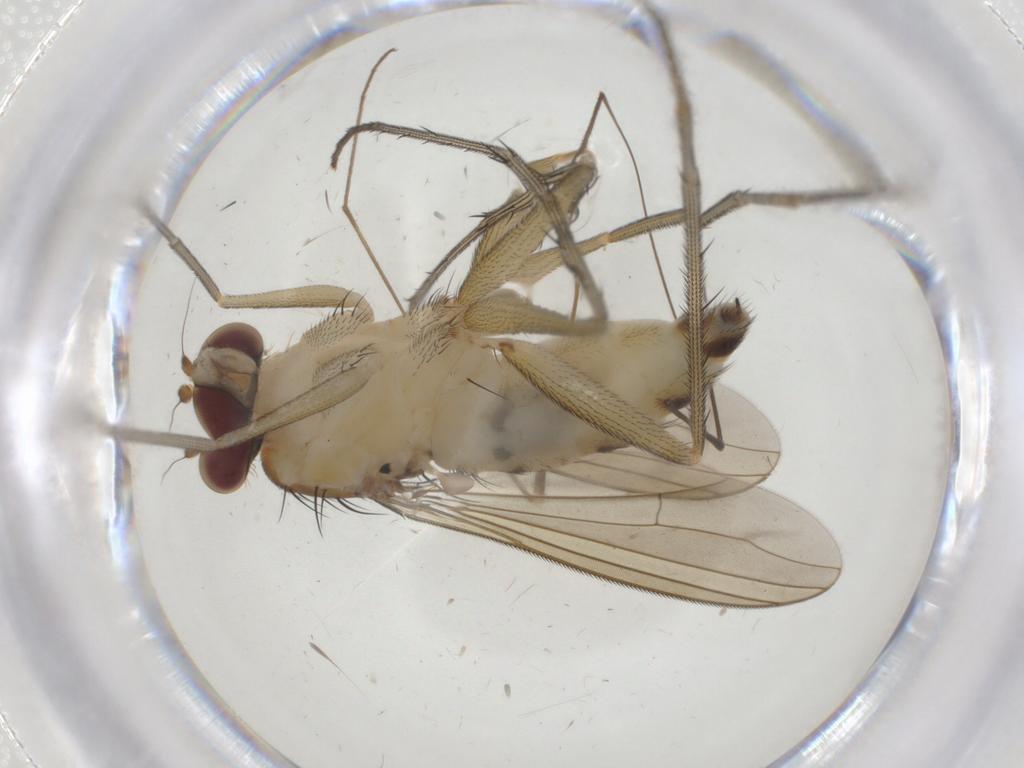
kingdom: Animalia
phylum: Arthropoda
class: Insecta
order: Diptera
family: Limoniidae
